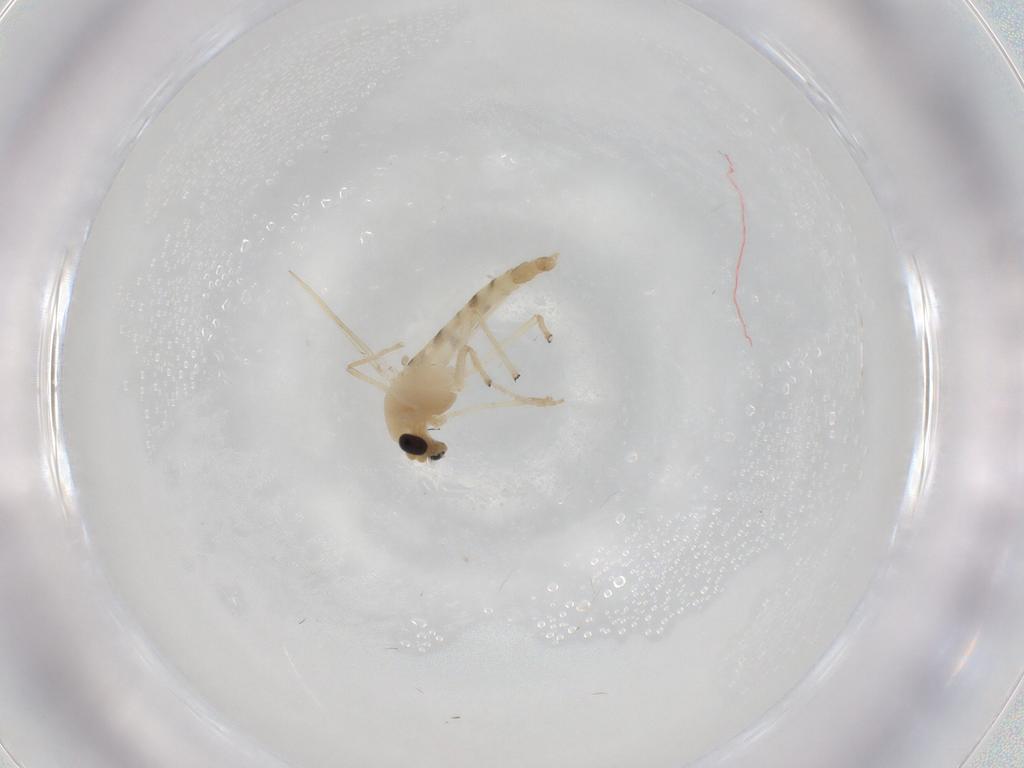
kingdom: Animalia
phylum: Arthropoda
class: Insecta
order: Diptera
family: Chironomidae
